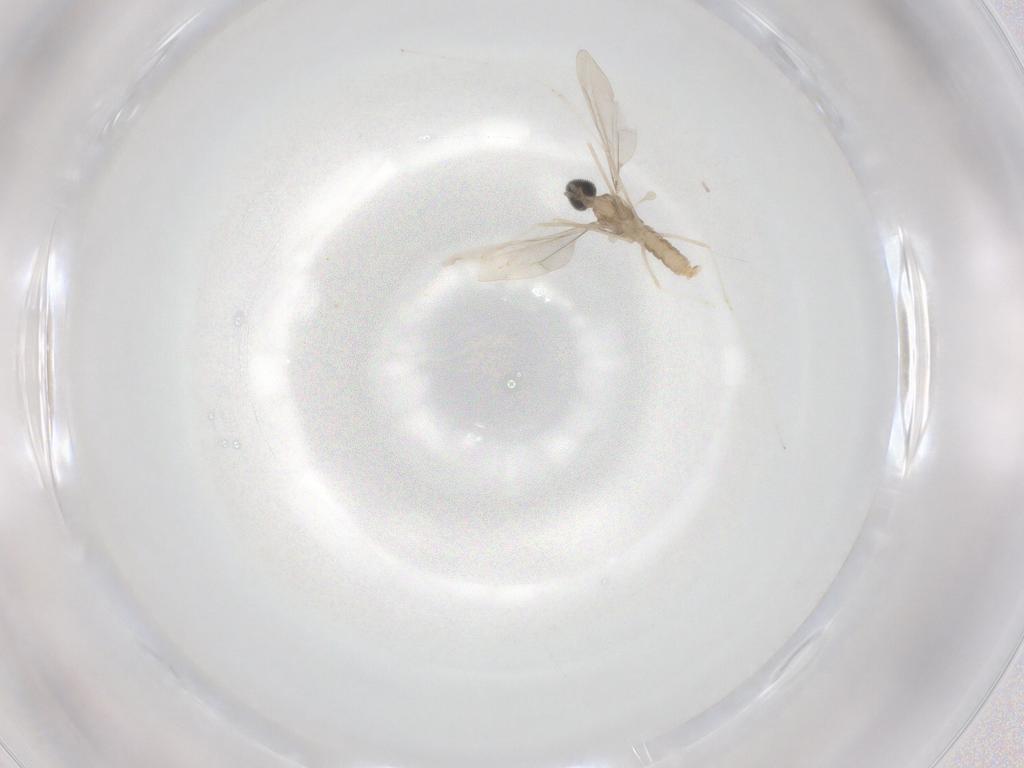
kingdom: Animalia
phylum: Arthropoda
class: Insecta
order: Diptera
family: Cecidomyiidae
